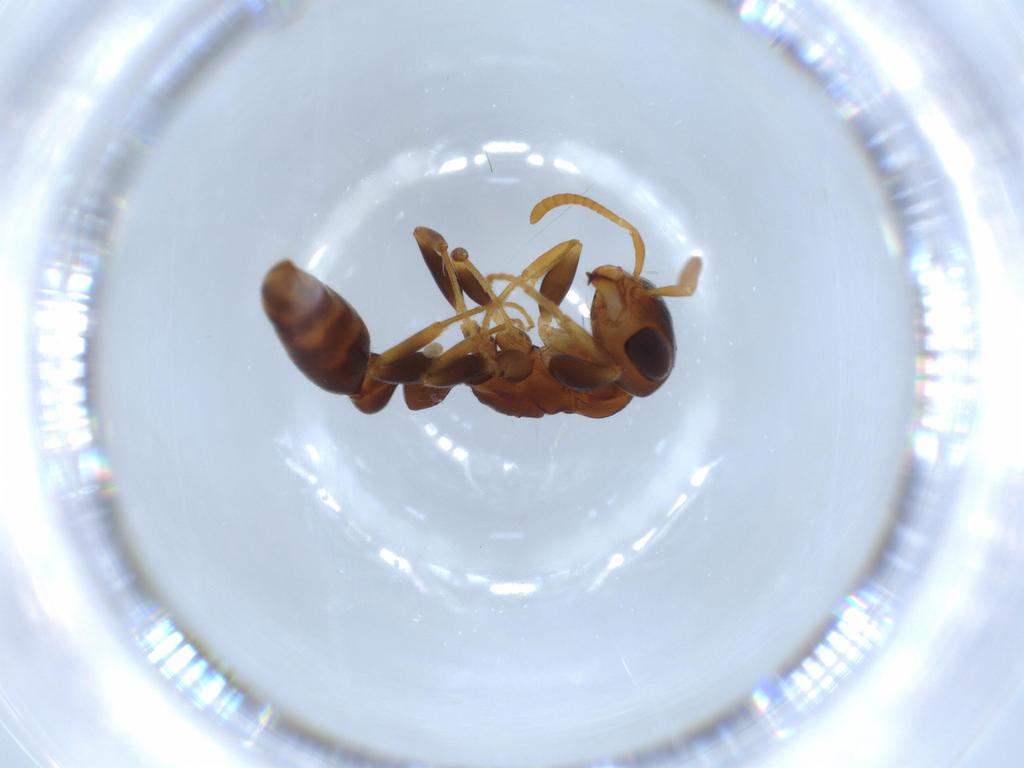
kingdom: Animalia
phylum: Arthropoda
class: Insecta
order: Hymenoptera
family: Formicidae
